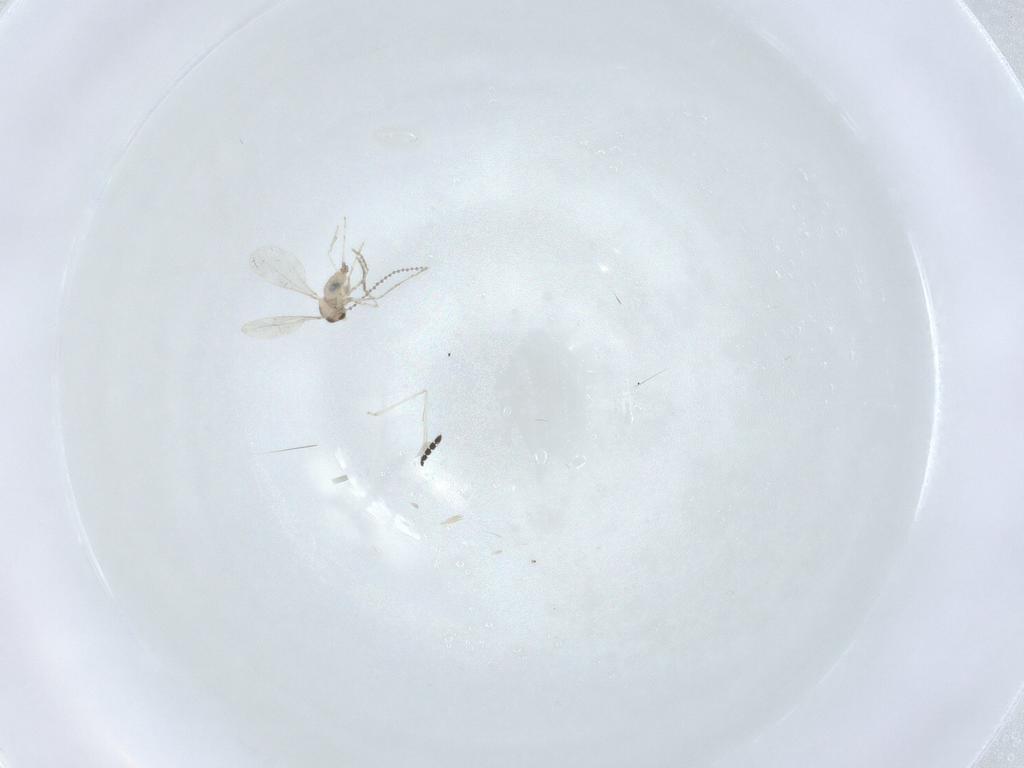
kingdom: Animalia
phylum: Arthropoda
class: Insecta
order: Diptera
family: Cecidomyiidae
